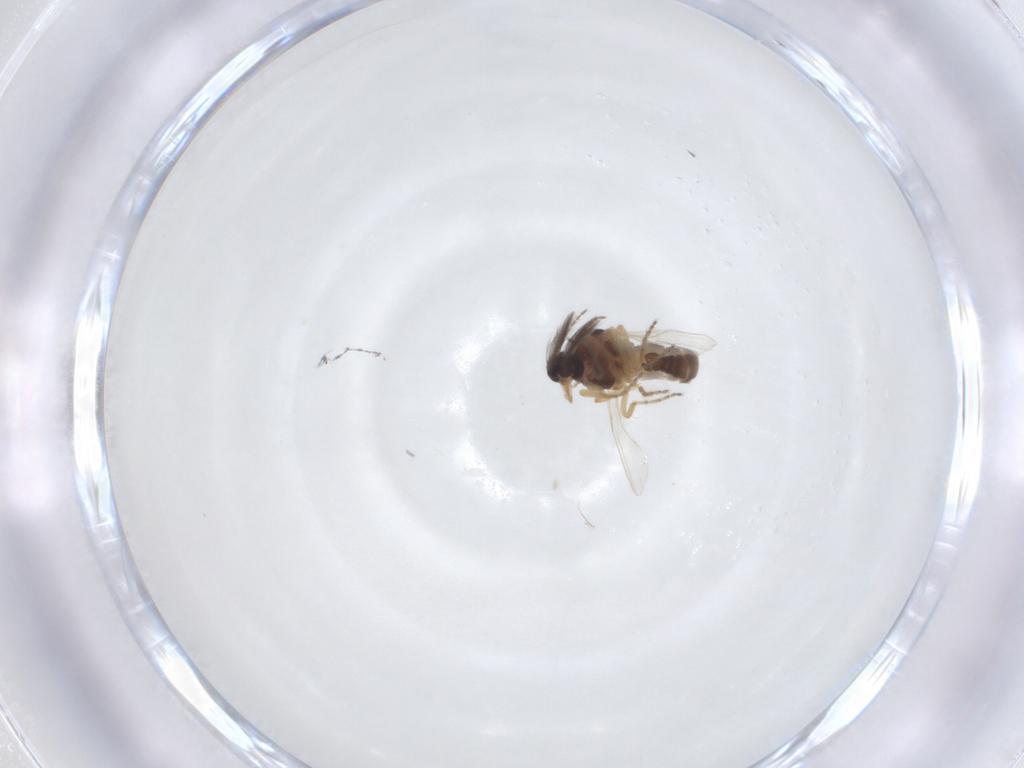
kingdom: Animalia
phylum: Arthropoda
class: Insecta
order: Diptera
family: Ceratopogonidae
